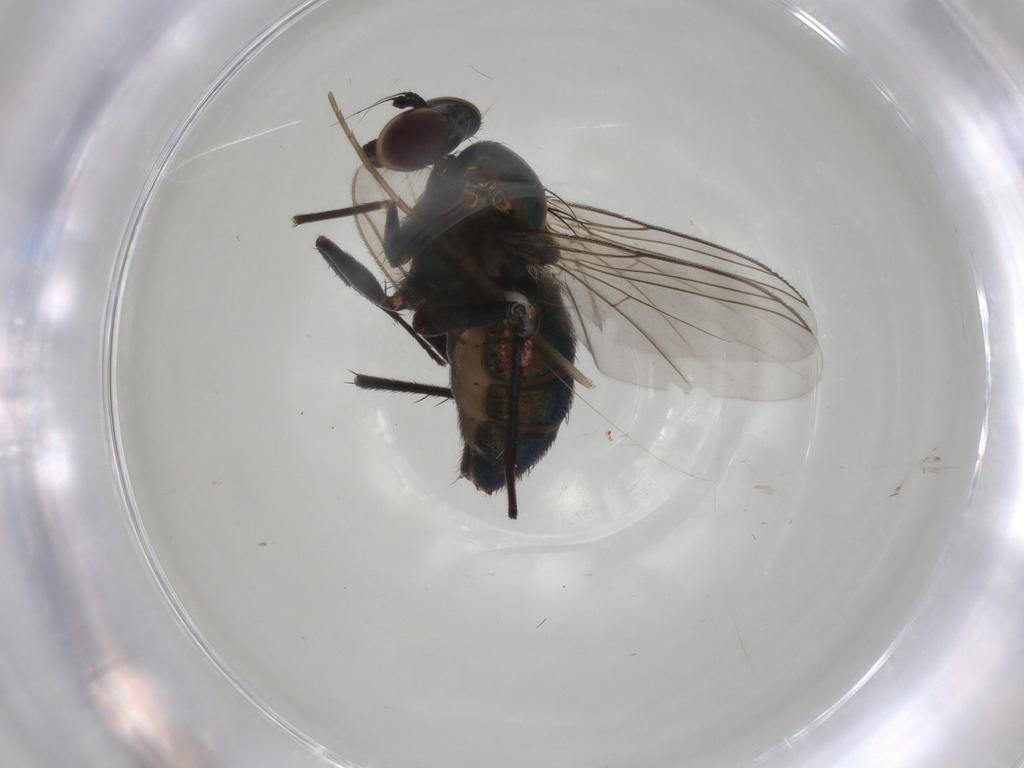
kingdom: Animalia
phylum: Arthropoda
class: Insecta
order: Diptera
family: Dolichopodidae
